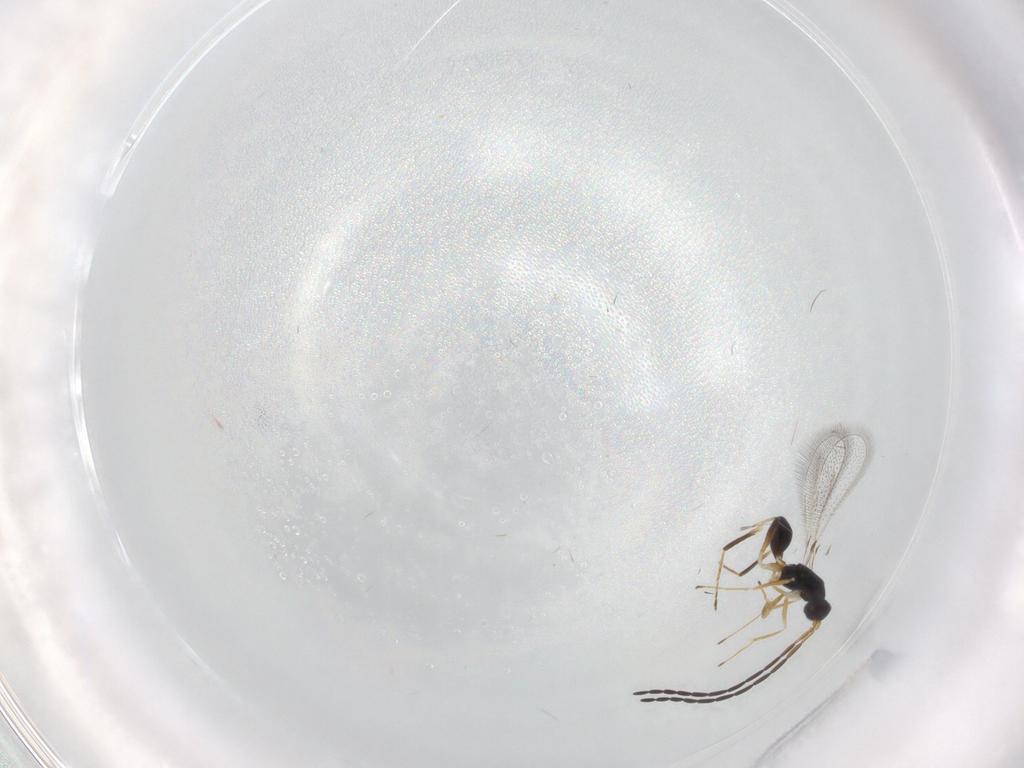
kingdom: Animalia
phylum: Arthropoda
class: Insecta
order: Hymenoptera
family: Mymaridae
